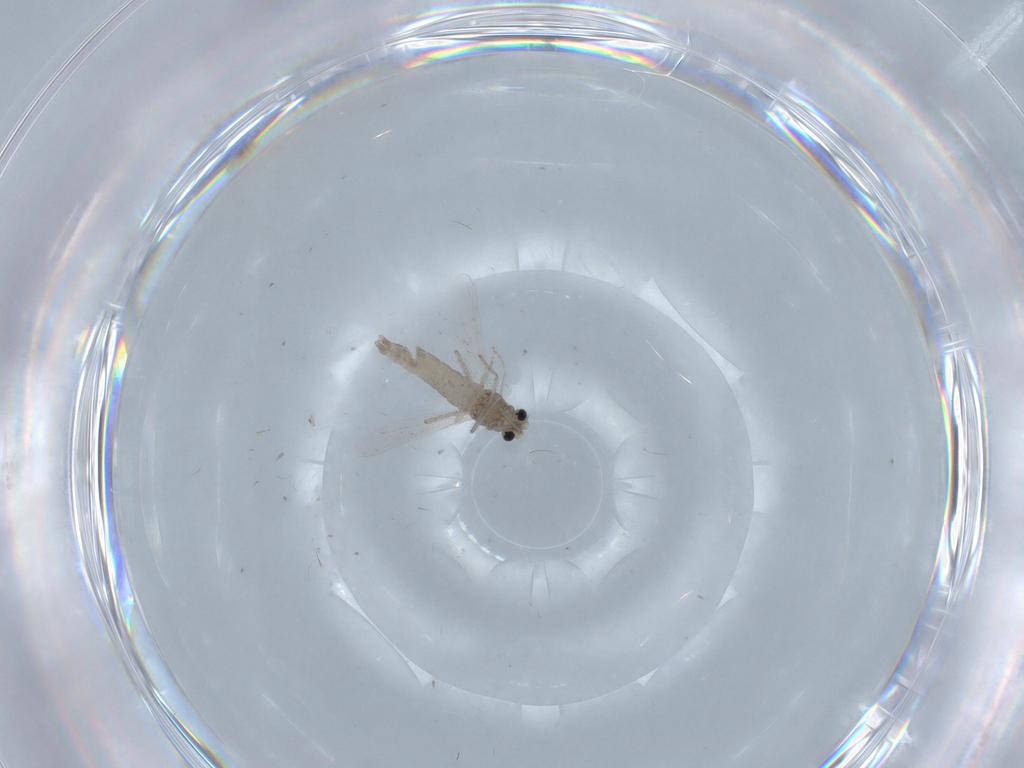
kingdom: Animalia
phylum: Arthropoda
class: Insecta
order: Diptera
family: Chironomidae
